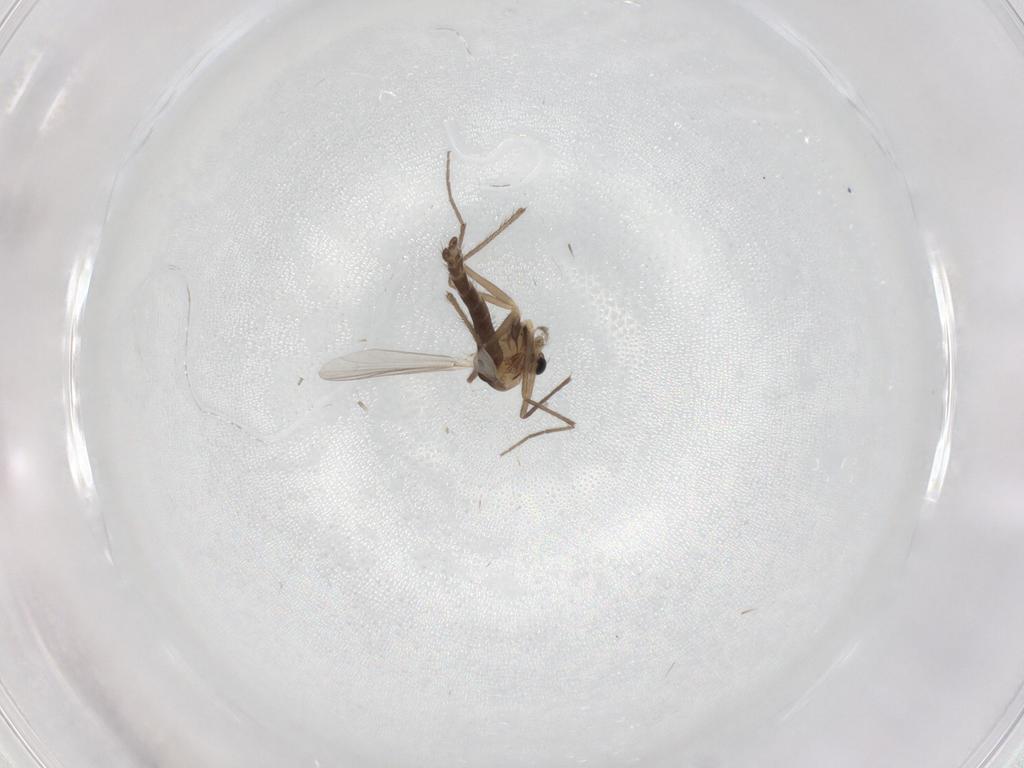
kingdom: Animalia
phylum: Arthropoda
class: Insecta
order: Diptera
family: Chironomidae
